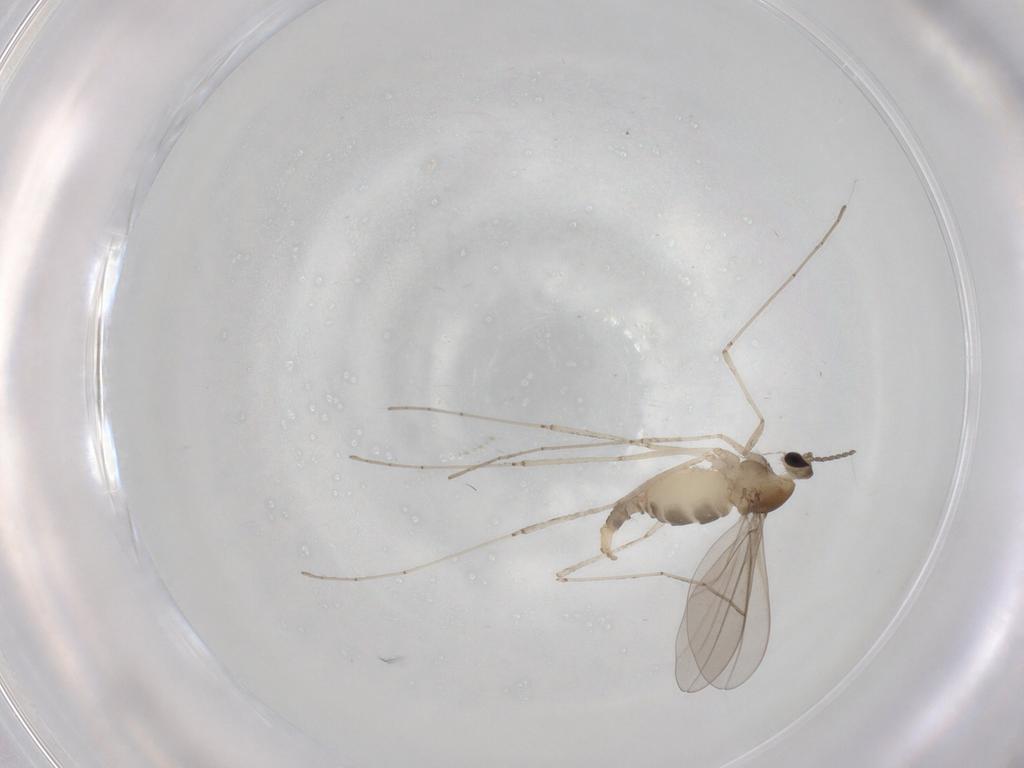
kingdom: Animalia
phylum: Arthropoda
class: Insecta
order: Diptera
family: Cecidomyiidae
